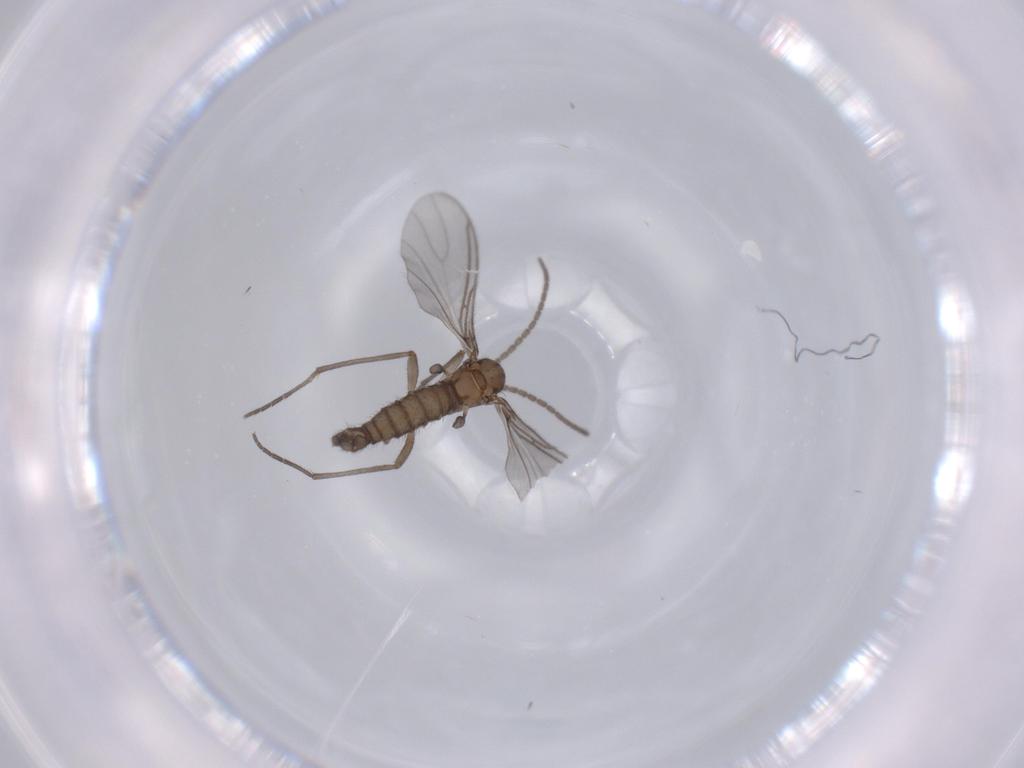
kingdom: Animalia
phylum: Arthropoda
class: Insecta
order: Diptera
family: Sciaridae
